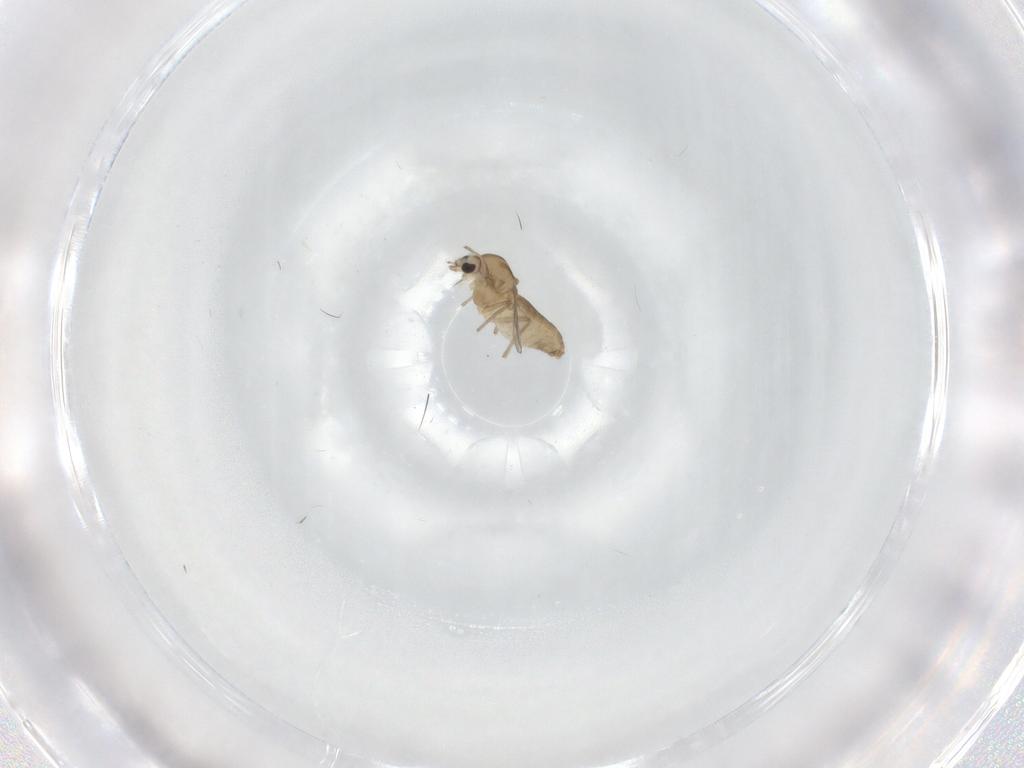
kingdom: Animalia
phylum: Arthropoda
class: Insecta
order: Diptera
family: Chironomidae
